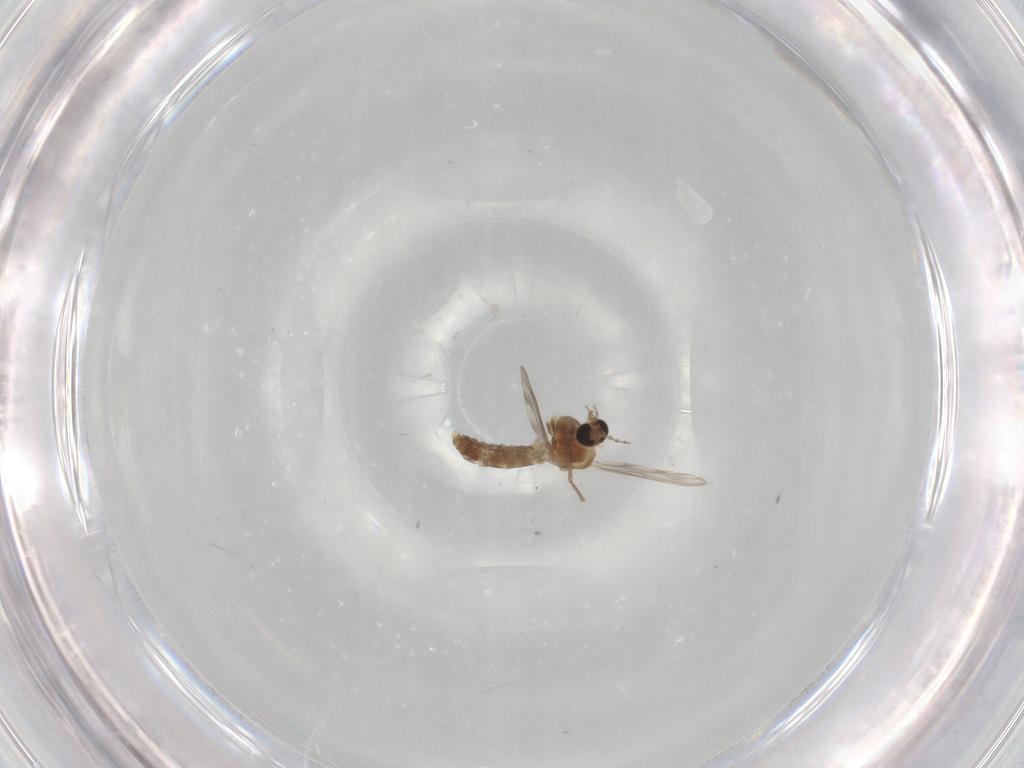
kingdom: Animalia
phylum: Arthropoda
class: Insecta
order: Diptera
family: Chironomidae
